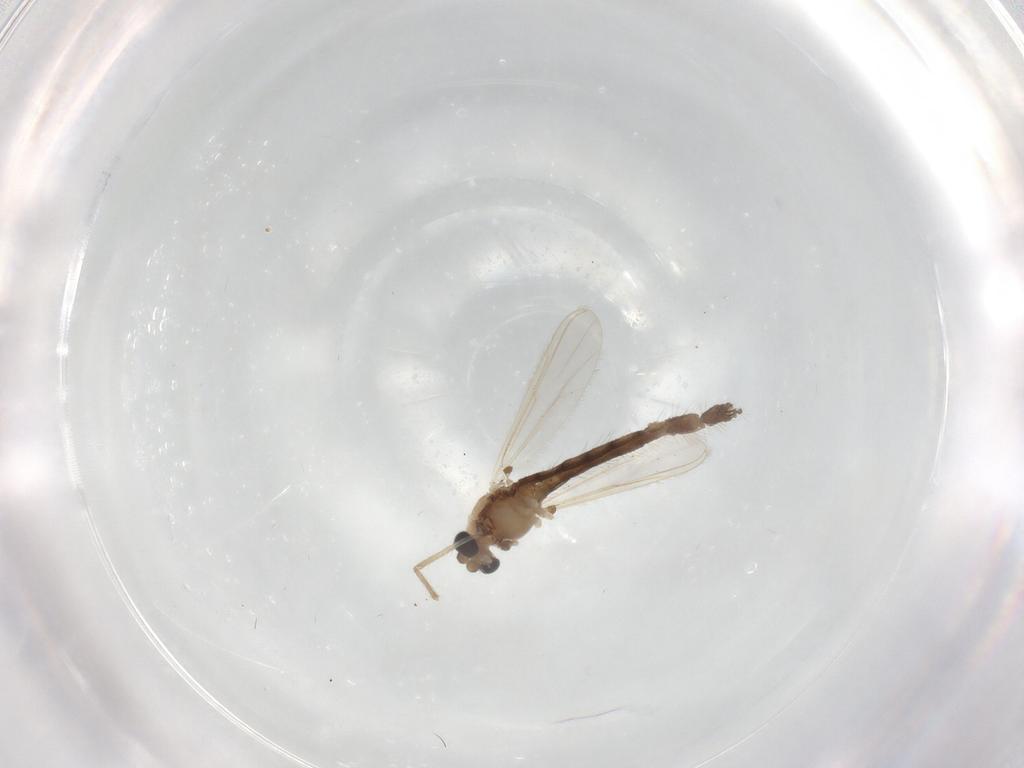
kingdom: Animalia
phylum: Arthropoda
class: Insecta
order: Diptera
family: Chironomidae
